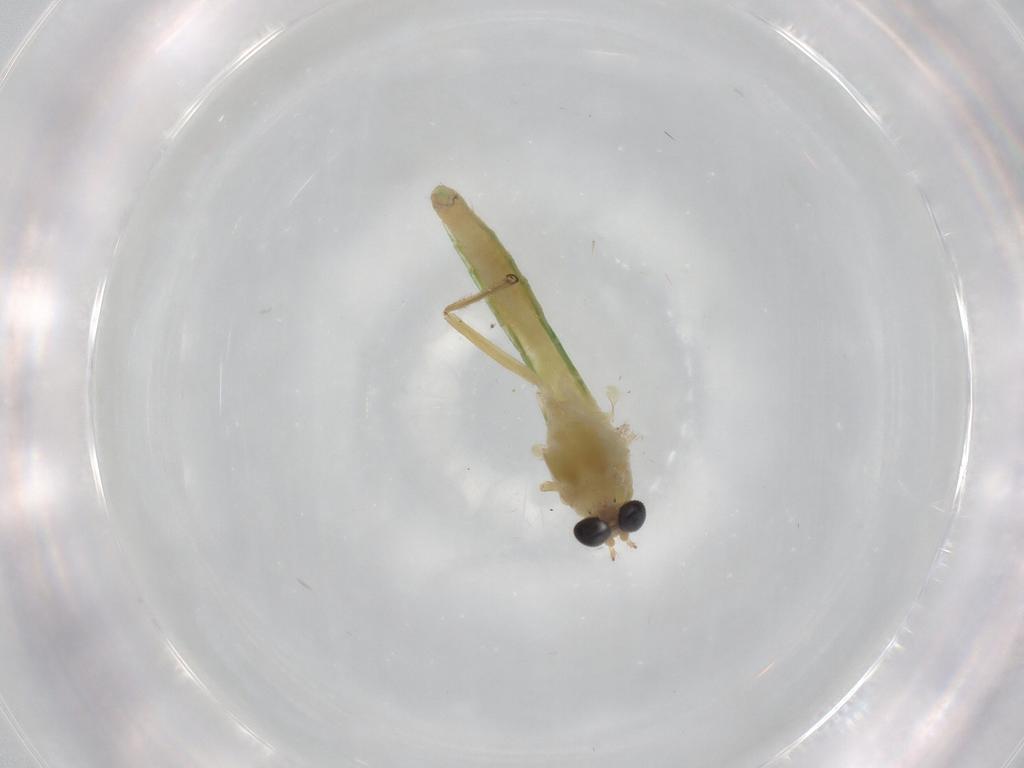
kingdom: Animalia
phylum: Arthropoda
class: Insecta
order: Diptera
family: Chironomidae
